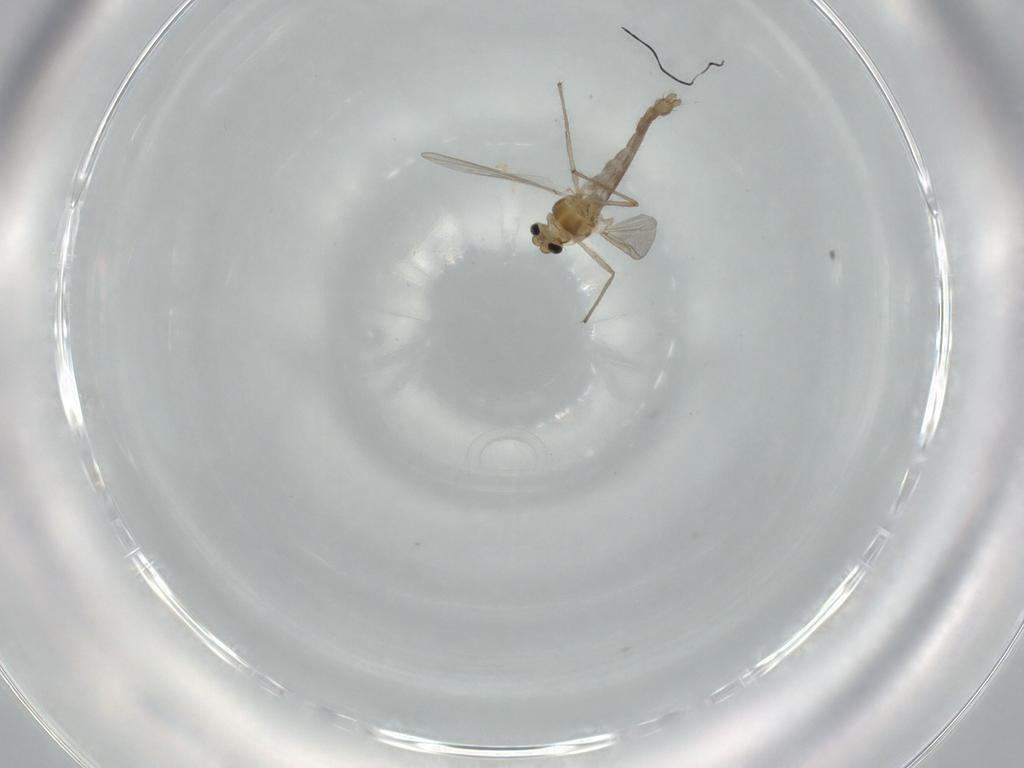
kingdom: Animalia
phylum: Arthropoda
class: Insecta
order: Diptera
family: Chironomidae
